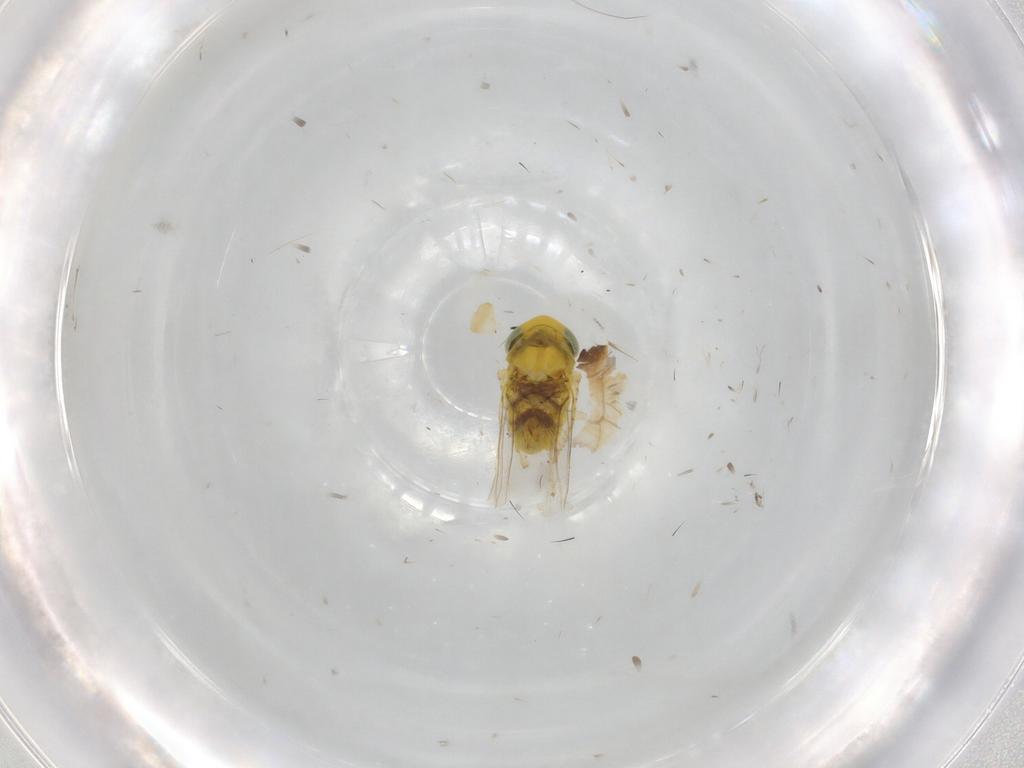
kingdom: Animalia
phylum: Arthropoda
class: Insecta
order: Hemiptera
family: Cicadellidae
